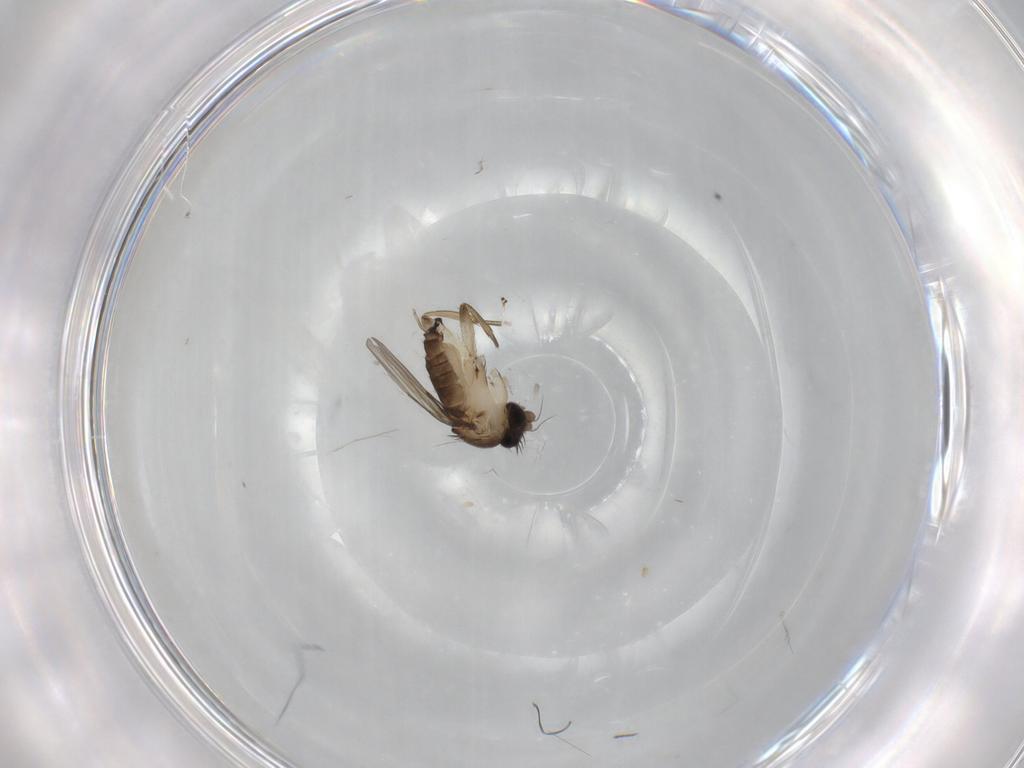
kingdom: Animalia
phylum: Arthropoda
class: Insecta
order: Diptera
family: Phoridae
